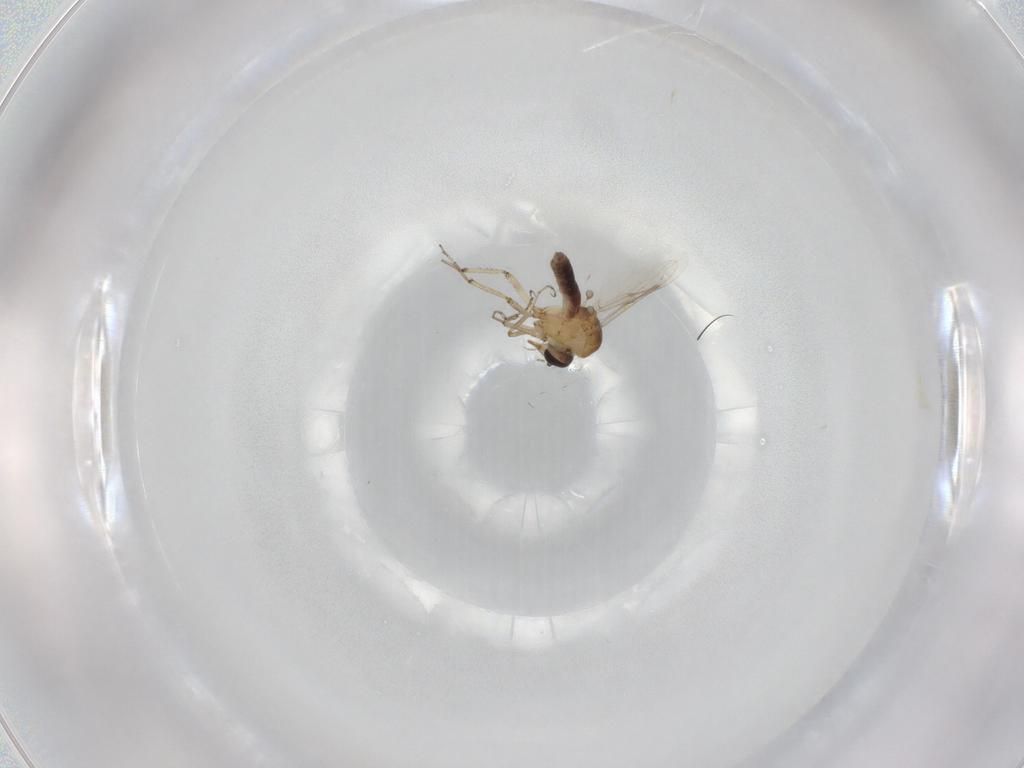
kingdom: Animalia
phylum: Arthropoda
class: Insecta
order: Diptera
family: Ceratopogonidae
